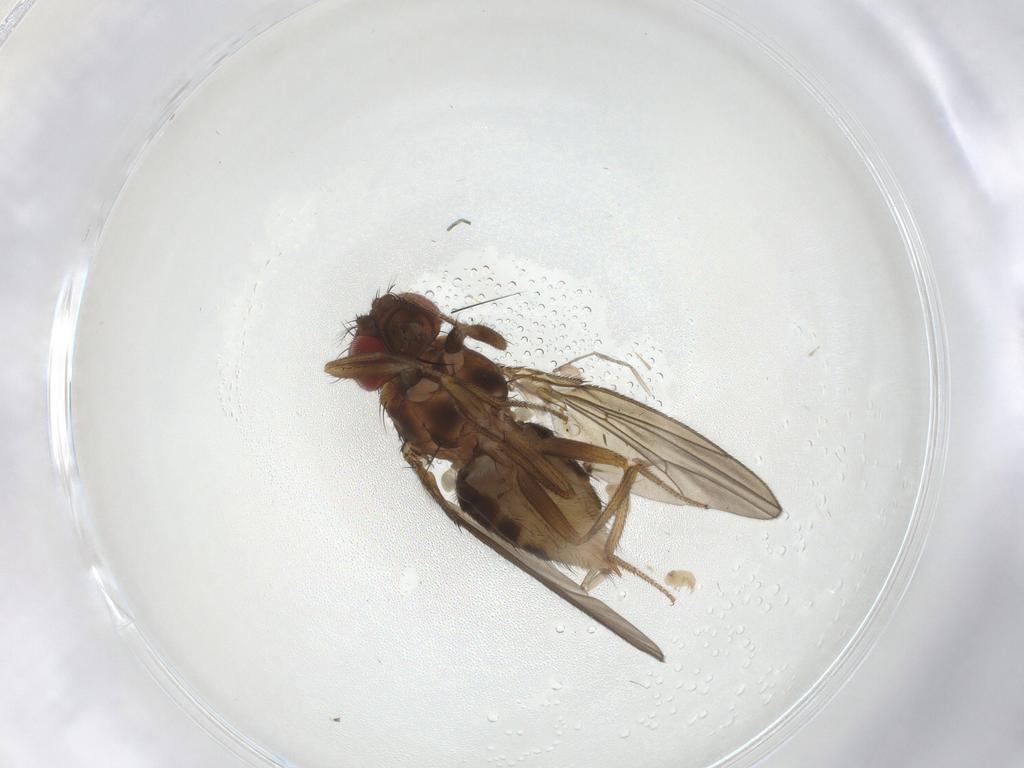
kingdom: Animalia
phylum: Arthropoda
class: Insecta
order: Diptera
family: Drosophilidae
